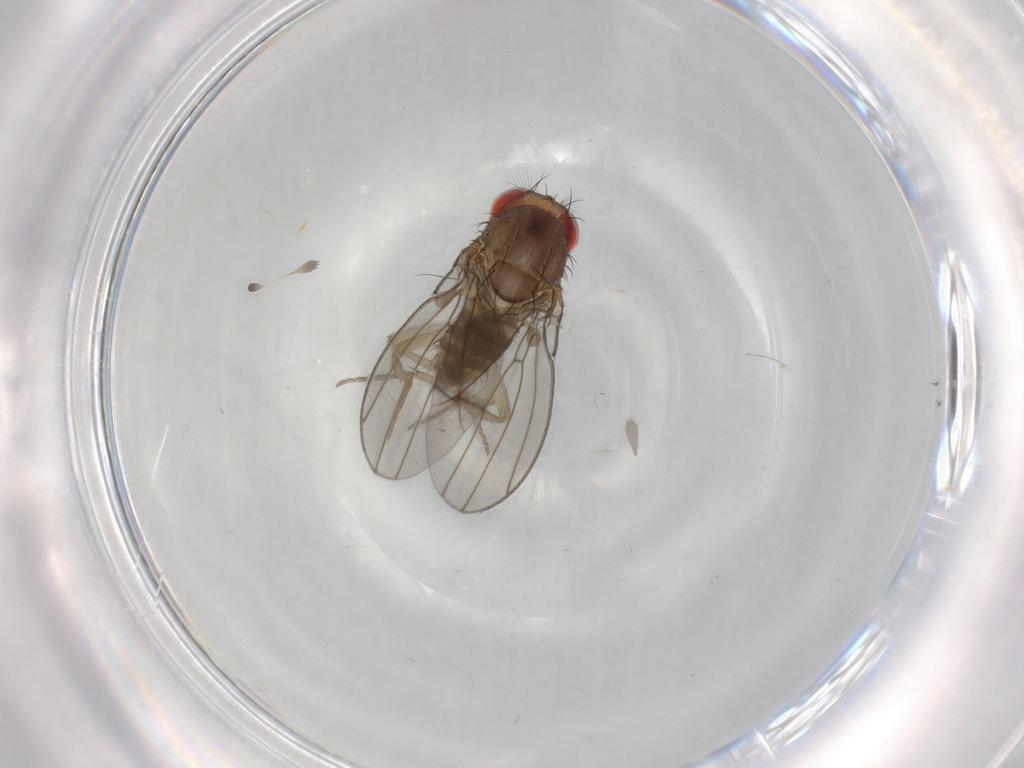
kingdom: Animalia
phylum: Arthropoda
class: Insecta
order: Diptera
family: Drosophilidae
